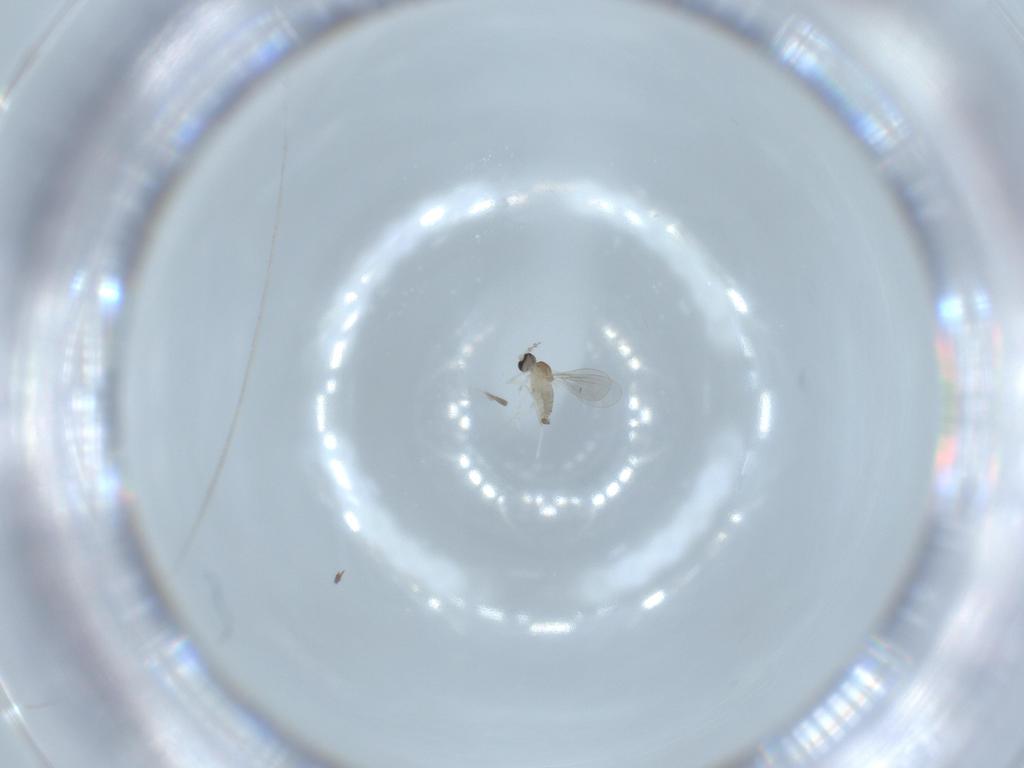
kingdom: Animalia
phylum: Arthropoda
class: Insecta
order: Diptera
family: Cecidomyiidae
